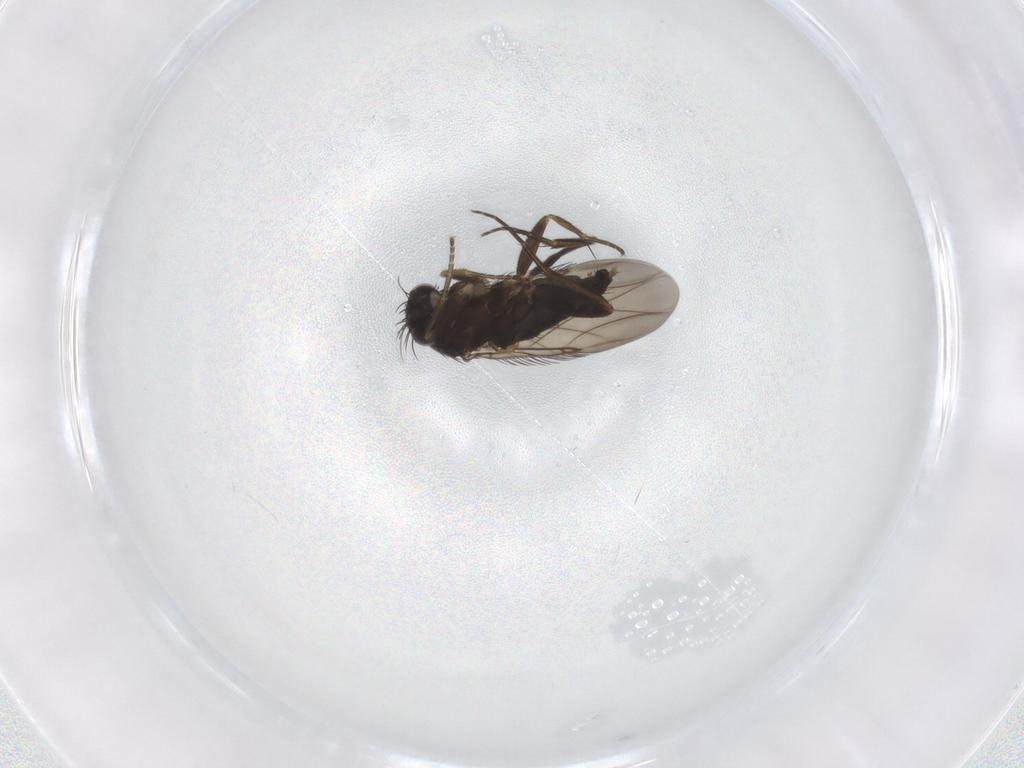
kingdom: Animalia
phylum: Arthropoda
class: Insecta
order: Diptera
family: Phoridae
